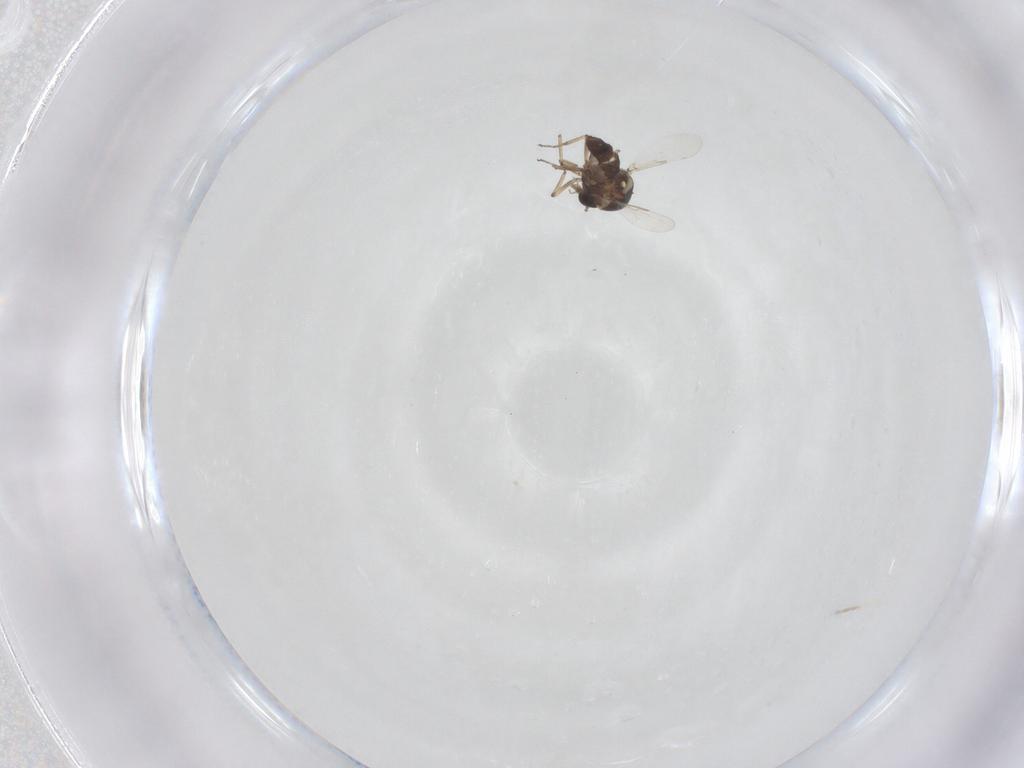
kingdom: Animalia
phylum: Arthropoda
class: Insecta
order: Diptera
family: Ceratopogonidae
